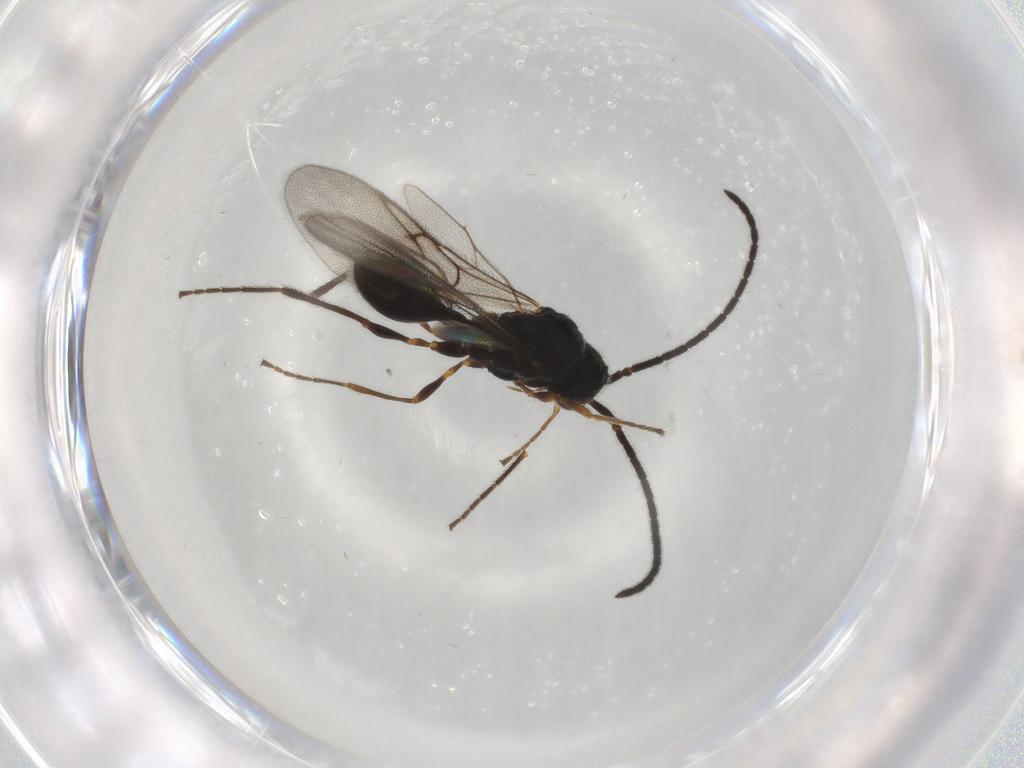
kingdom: Animalia
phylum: Arthropoda
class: Insecta
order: Hymenoptera
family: Diapriidae
